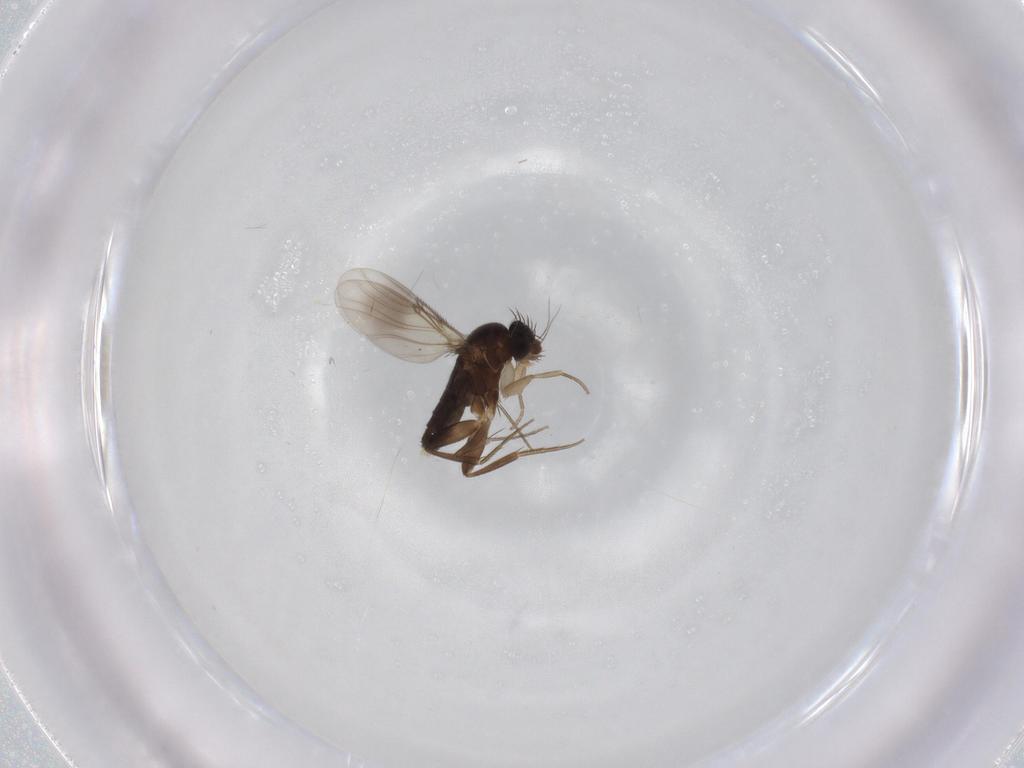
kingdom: Animalia
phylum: Arthropoda
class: Insecta
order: Diptera
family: Phoridae
